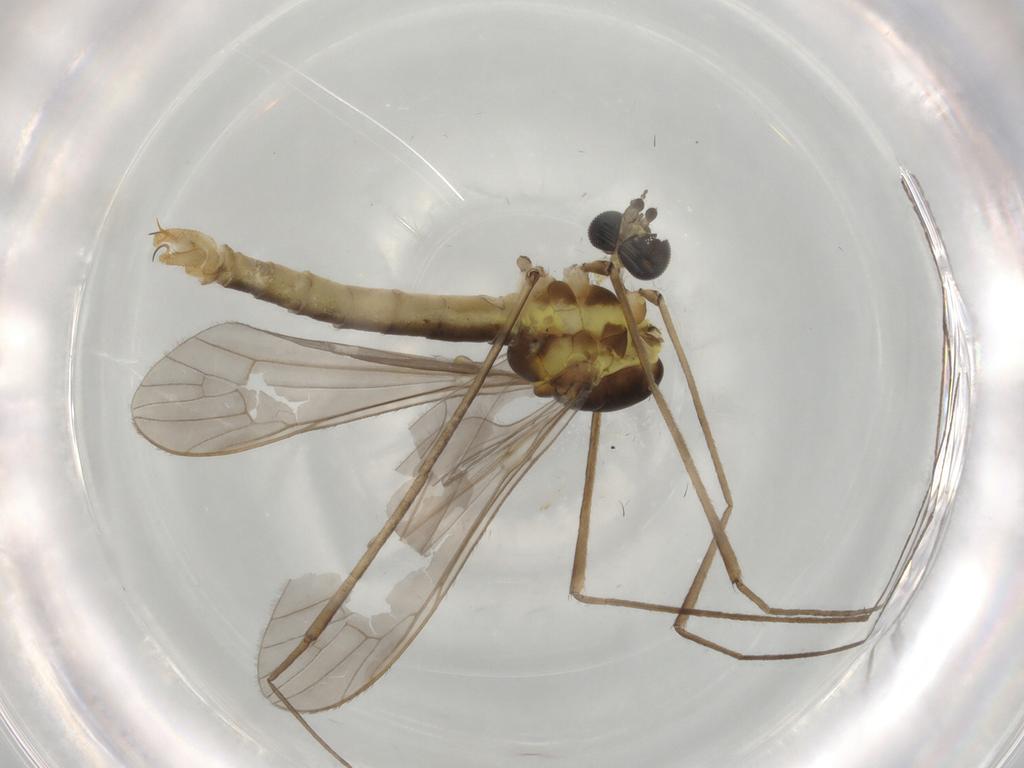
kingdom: Animalia
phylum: Arthropoda
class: Insecta
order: Diptera
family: Limoniidae
